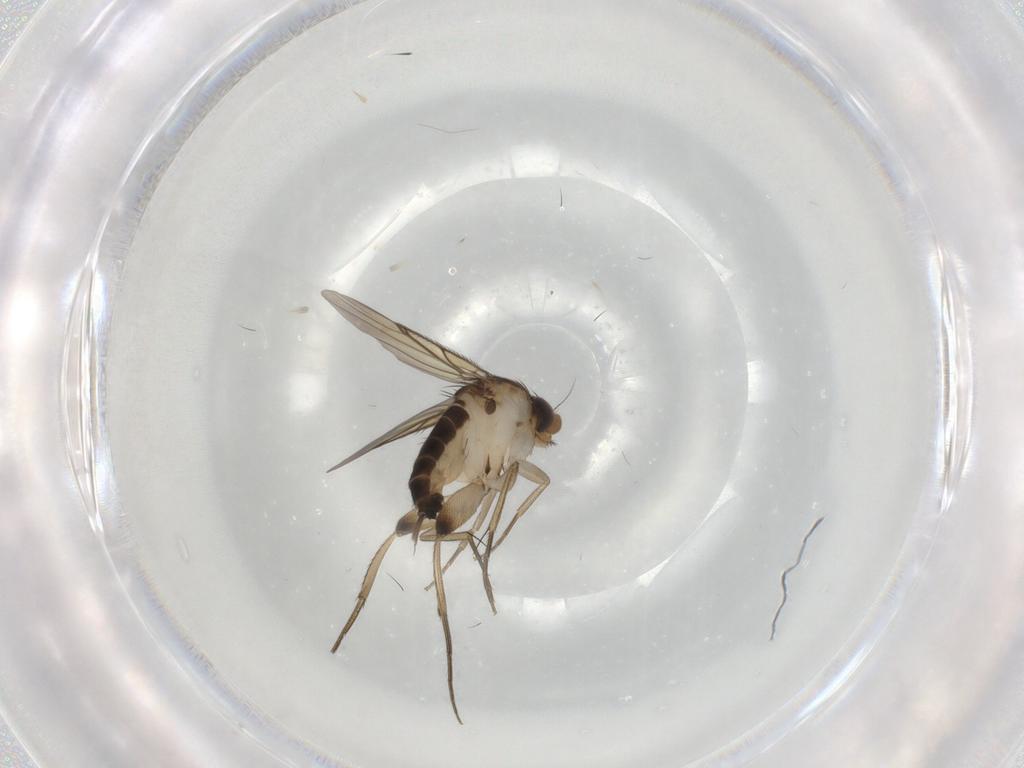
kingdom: Animalia
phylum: Arthropoda
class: Insecta
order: Diptera
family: Phoridae
